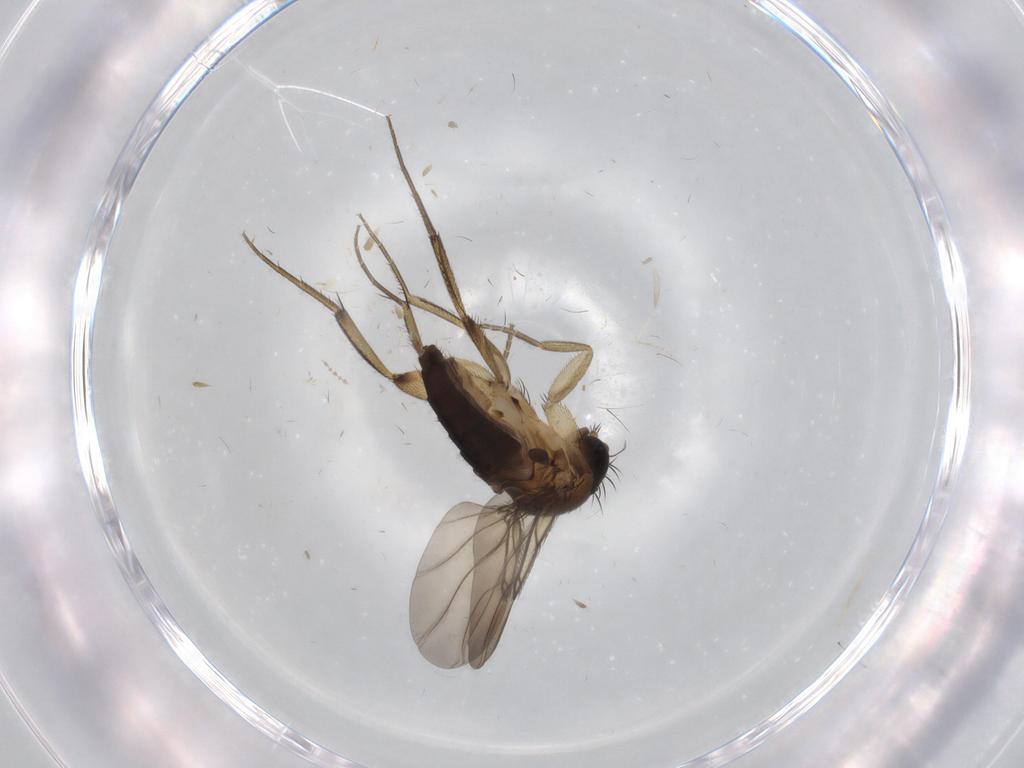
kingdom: Animalia
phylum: Arthropoda
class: Insecta
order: Diptera
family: Phoridae
